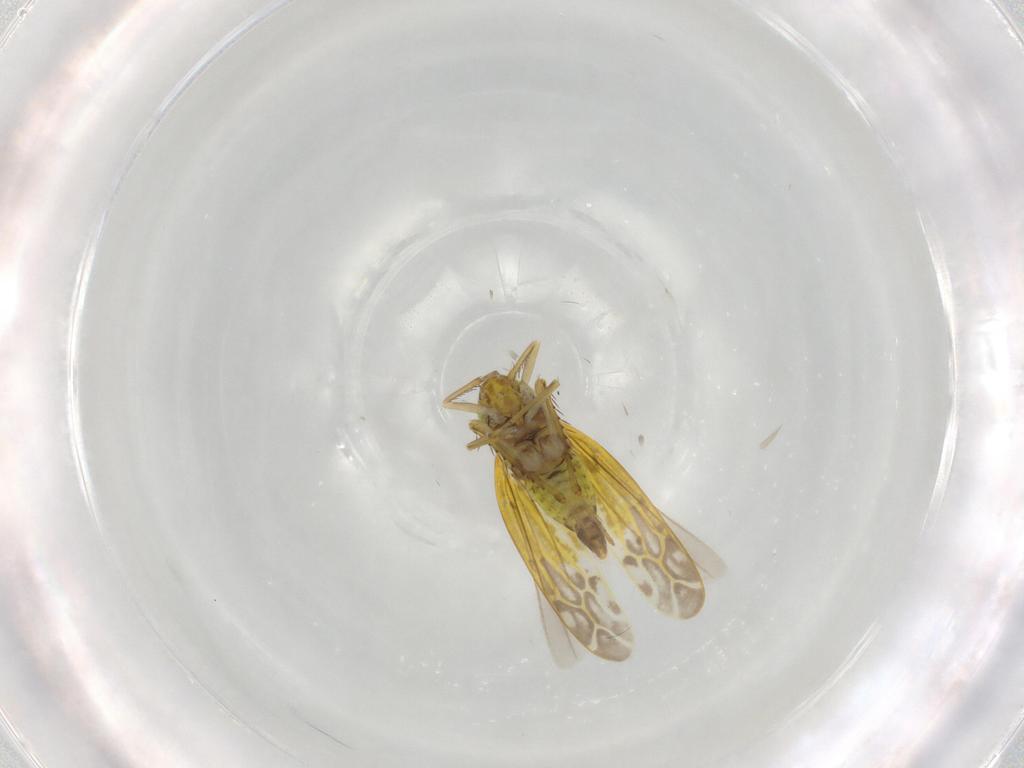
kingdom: Animalia
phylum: Arthropoda
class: Insecta
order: Hemiptera
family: Cicadellidae
